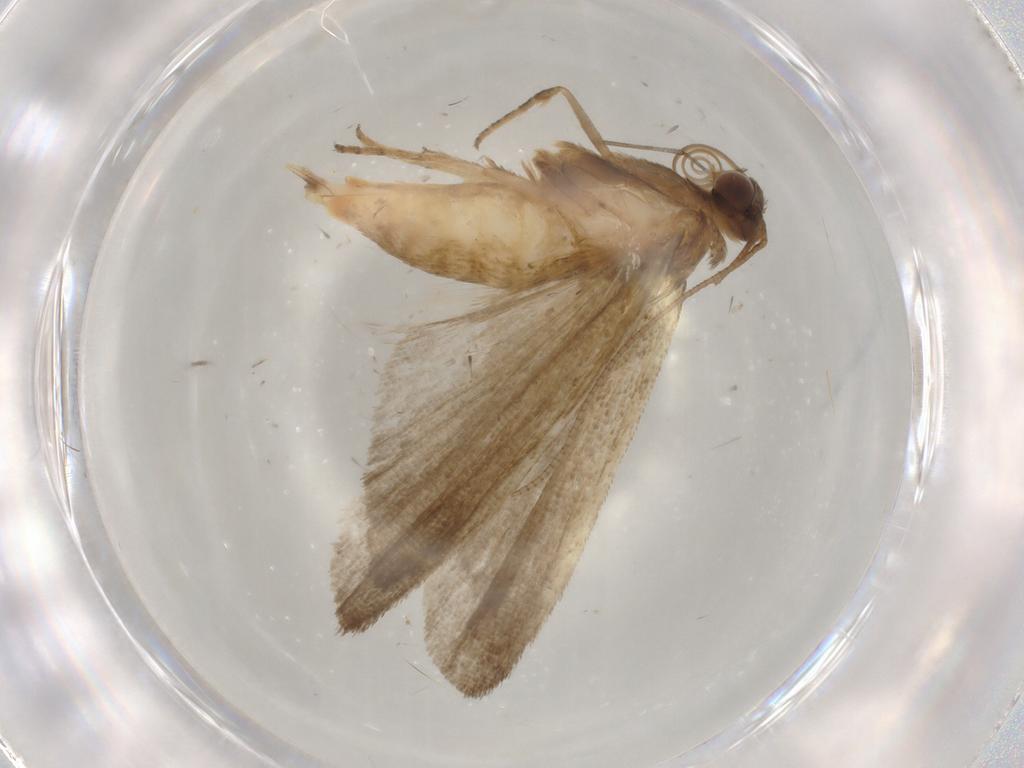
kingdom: Animalia
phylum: Arthropoda
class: Insecta
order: Lepidoptera
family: Noctuidae
